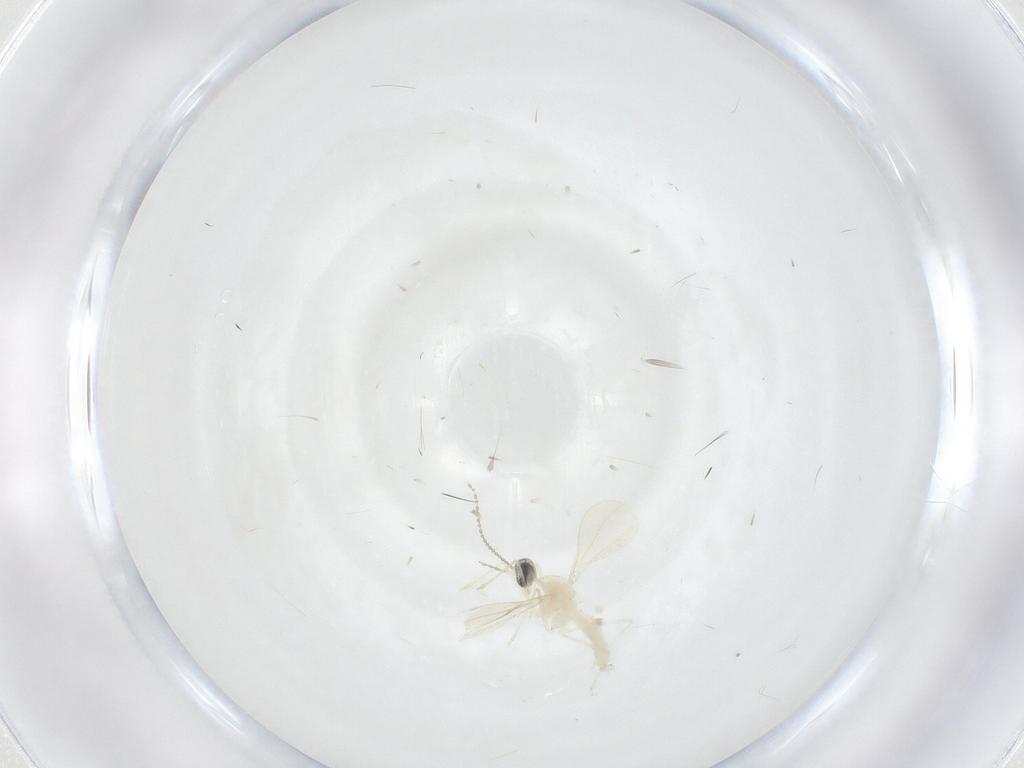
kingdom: Animalia
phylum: Arthropoda
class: Insecta
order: Diptera
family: Cecidomyiidae
